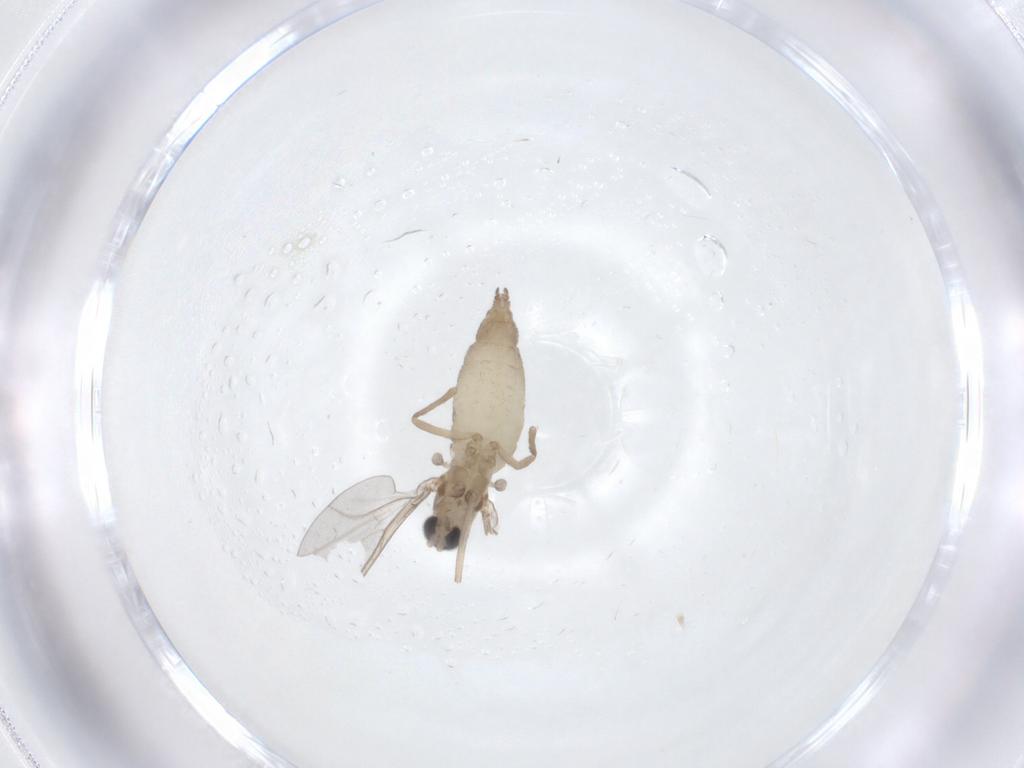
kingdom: Animalia
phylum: Arthropoda
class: Insecta
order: Diptera
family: Cecidomyiidae
